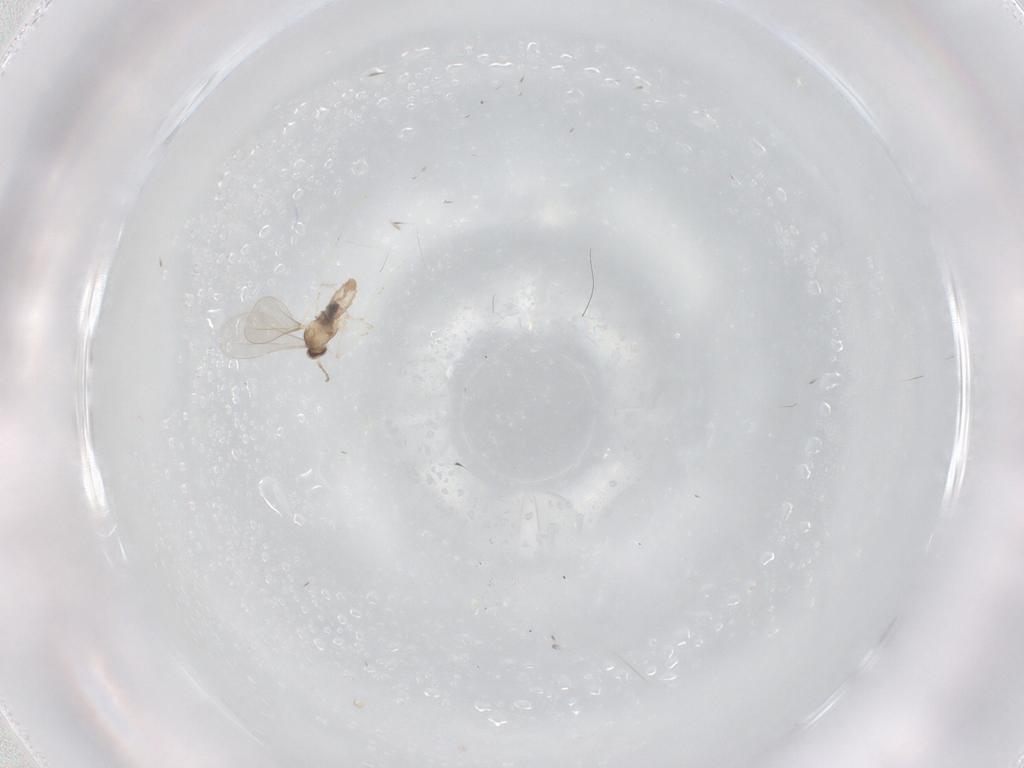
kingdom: Animalia
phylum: Arthropoda
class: Insecta
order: Diptera
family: Cecidomyiidae
